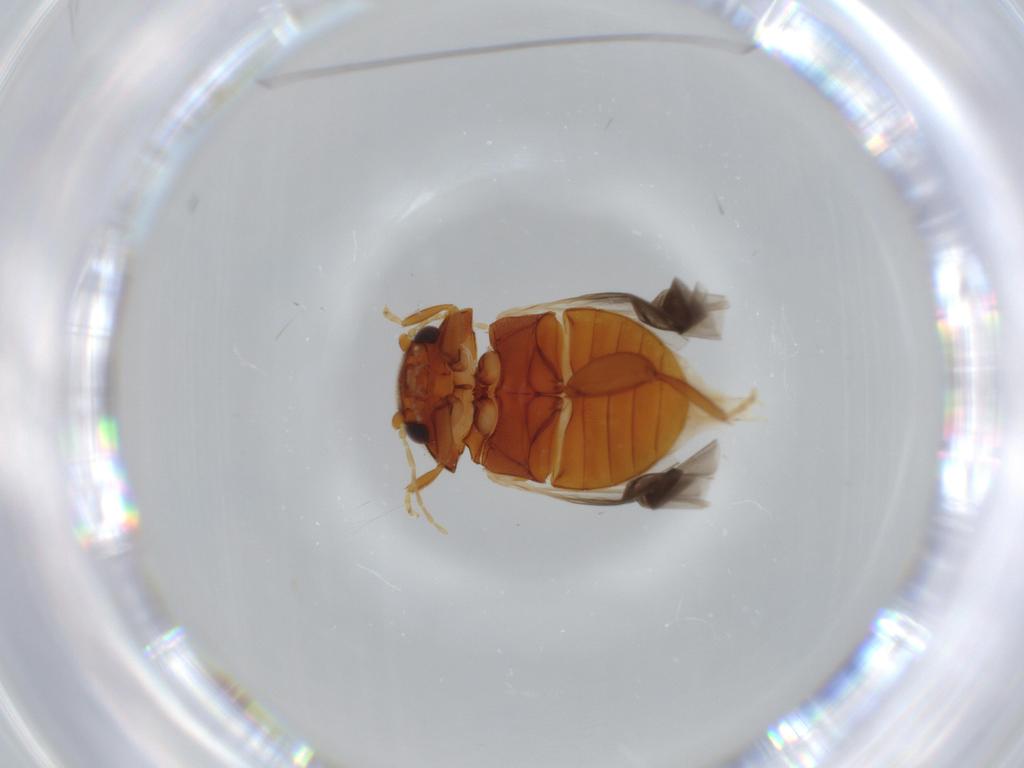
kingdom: Animalia
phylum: Arthropoda
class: Insecta
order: Coleoptera
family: Scirtidae
